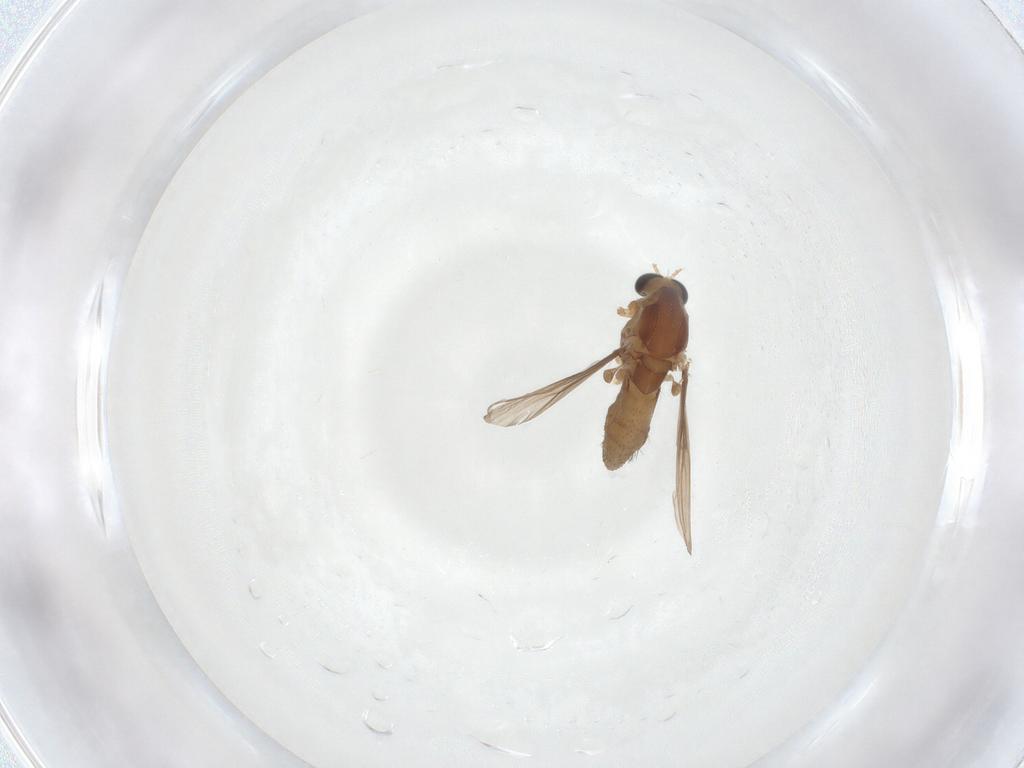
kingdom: Animalia
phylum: Arthropoda
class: Insecta
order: Diptera
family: Chironomidae
